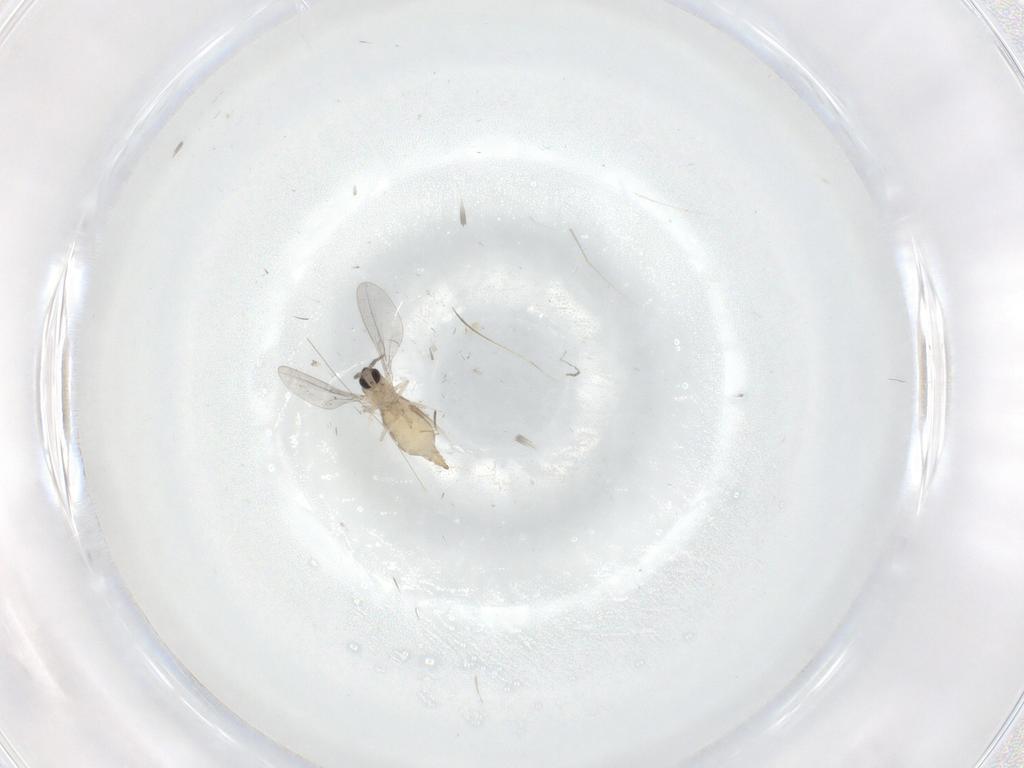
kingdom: Animalia
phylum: Arthropoda
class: Insecta
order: Diptera
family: Cecidomyiidae
